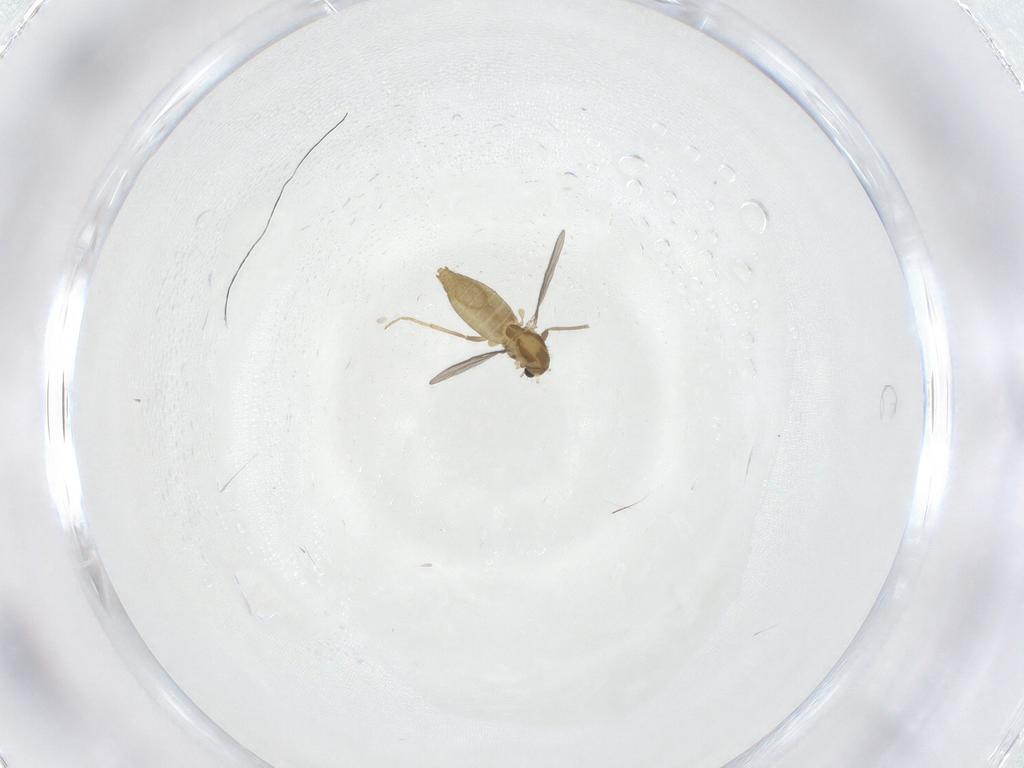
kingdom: Animalia
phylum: Arthropoda
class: Insecta
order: Diptera
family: Chironomidae
